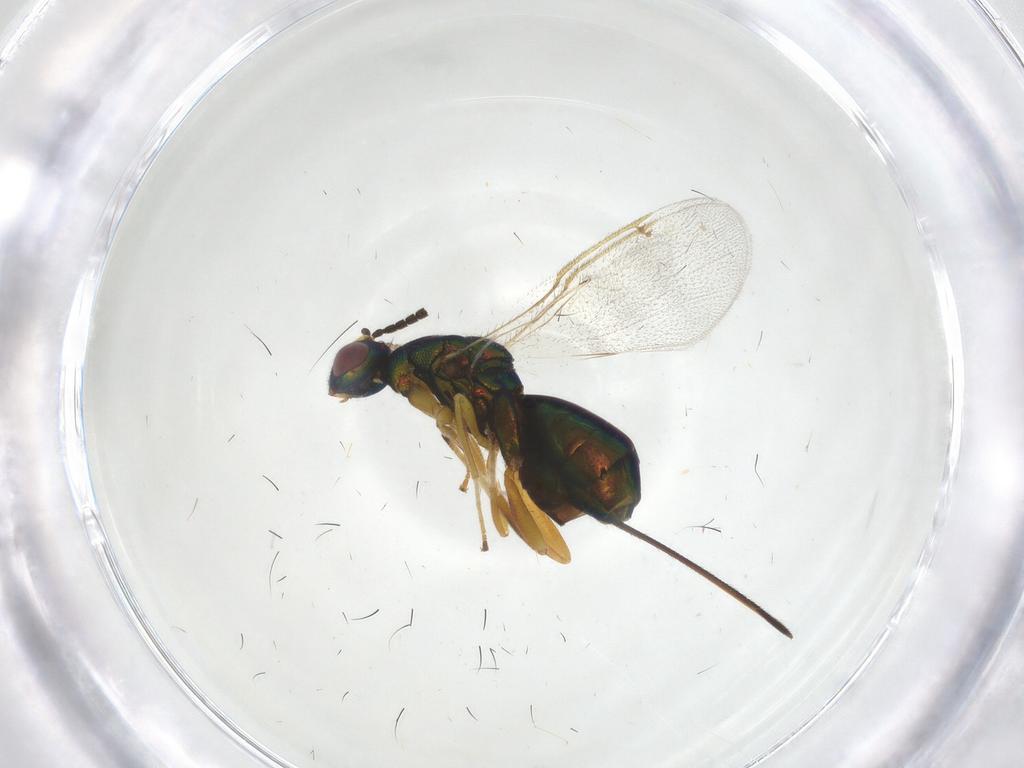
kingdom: Animalia
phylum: Arthropoda
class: Insecta
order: Hymenoptera
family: Torymidae
